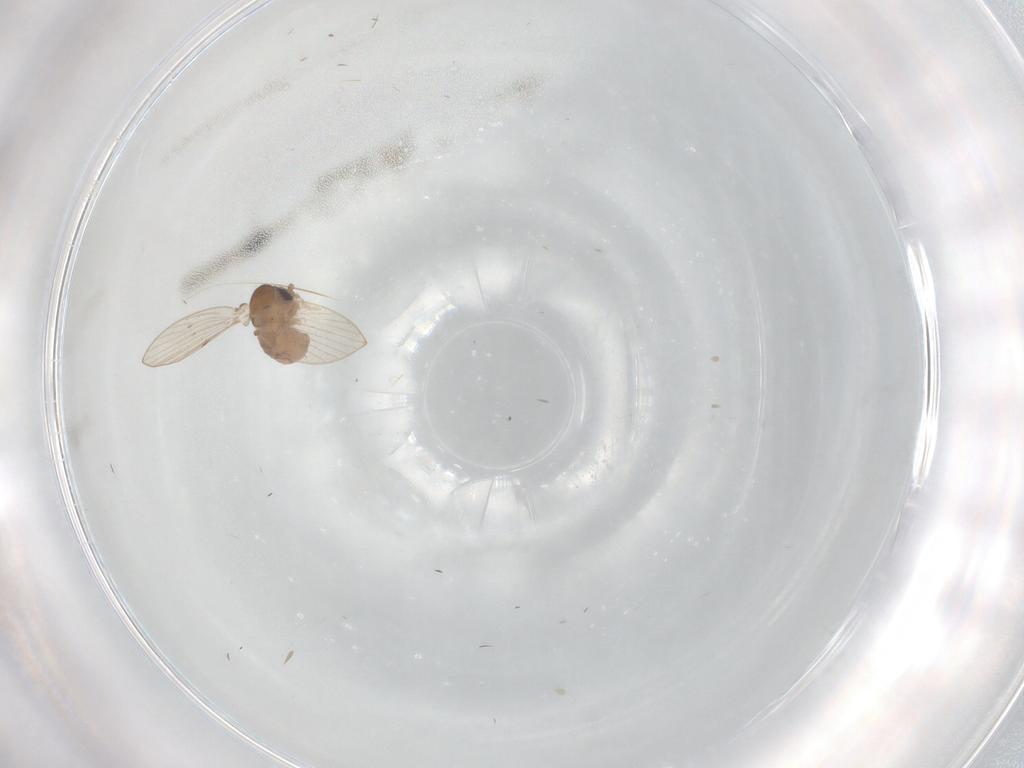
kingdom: Animalia
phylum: Arthropoda
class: Insecta
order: Diptera
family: Psychodidae
